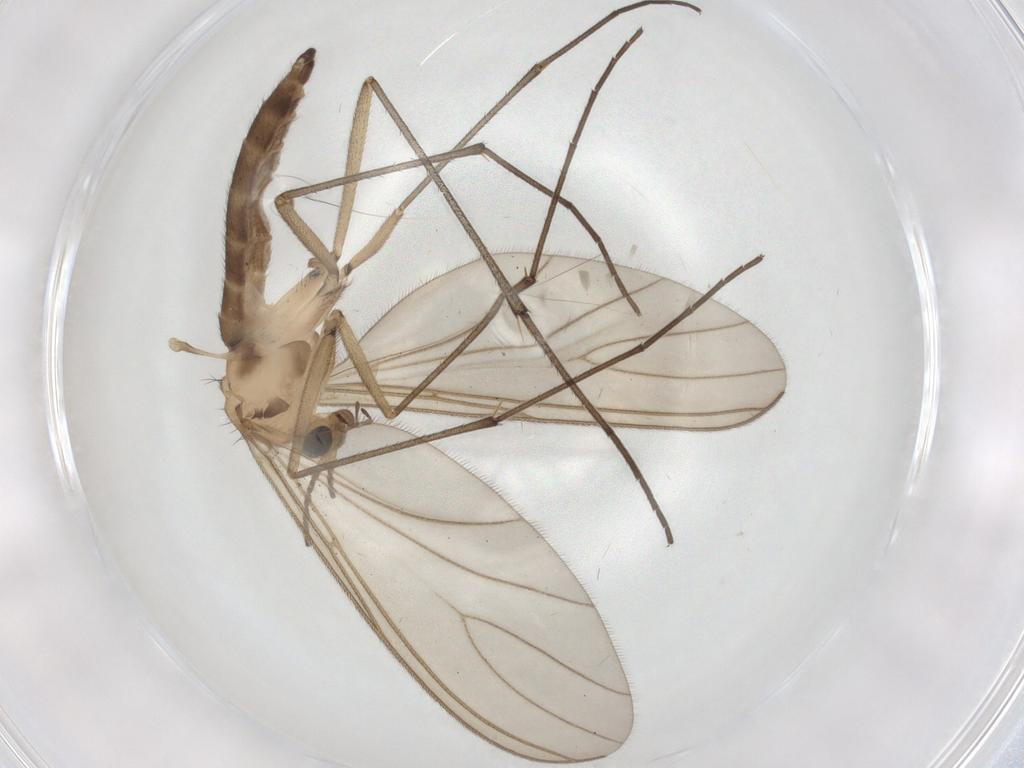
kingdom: Animalia
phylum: Arthropoda
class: Insecta
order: Diptera
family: Sciaridae
